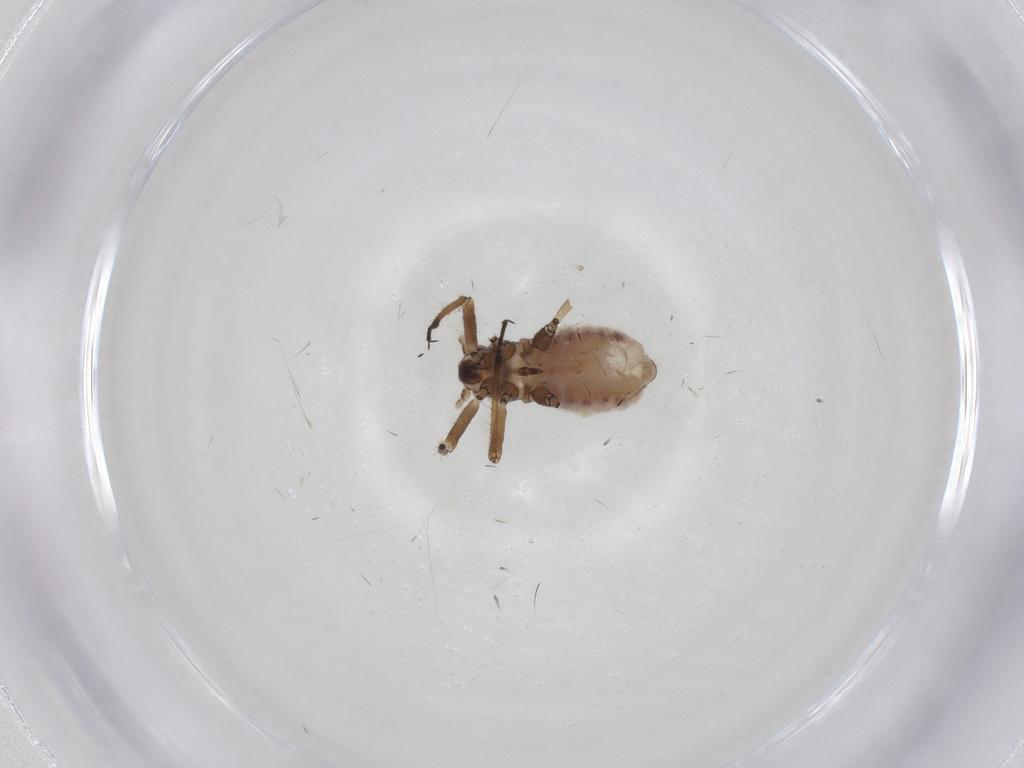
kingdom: Animalia
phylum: Arthropoda
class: Insecta
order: Hemiptera
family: Lachnidae
